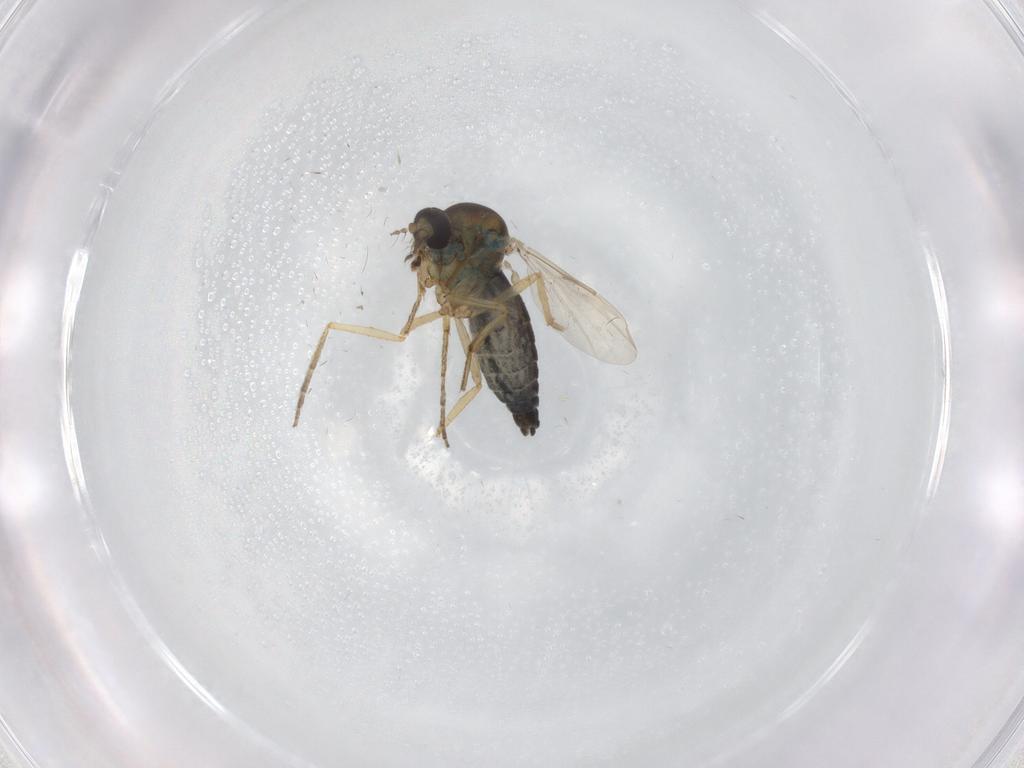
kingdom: Animalia
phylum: Arthropoda
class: Insecta
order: Diptera
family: Ceratopogonidae
